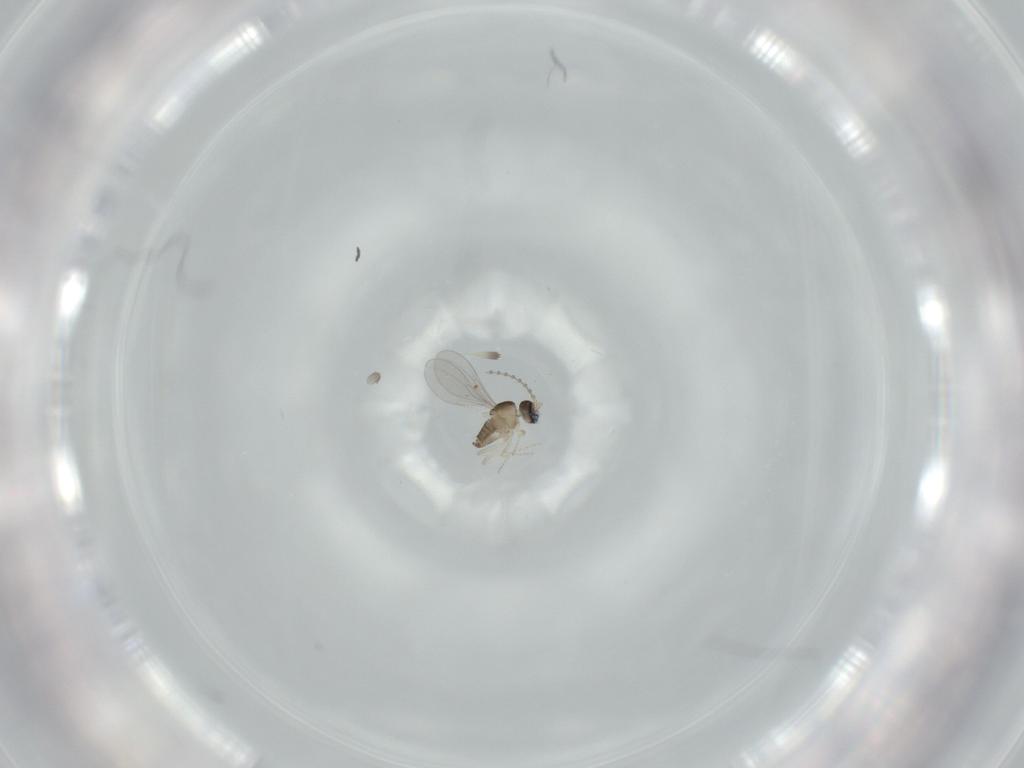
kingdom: Animalia
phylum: Arthropoda
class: Insecta
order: Diptera
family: Cecidomyiidae
